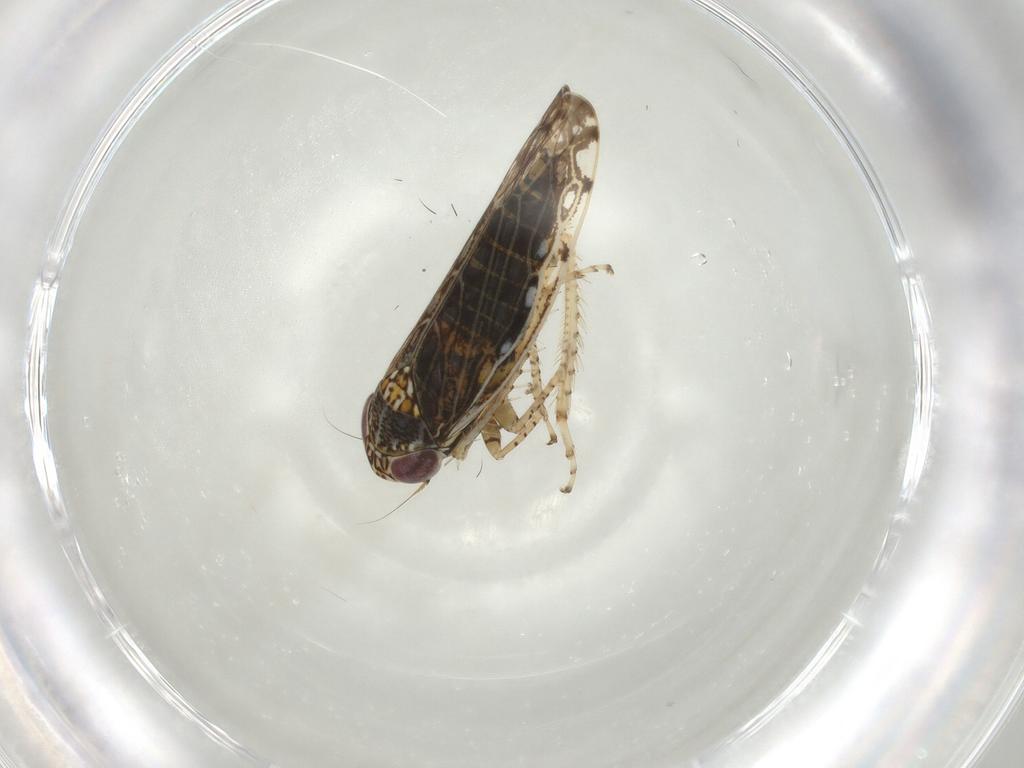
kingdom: Animalia
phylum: Arthropoda
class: Insecta
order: Hemiptera
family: Cicadellidae
